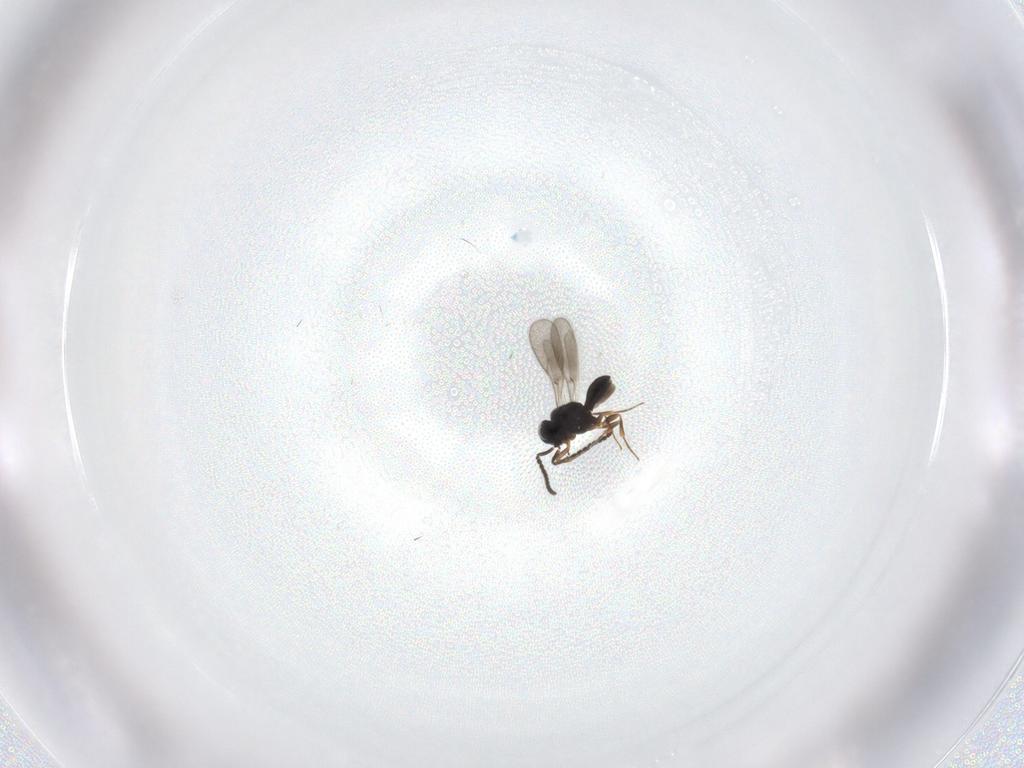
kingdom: Animalia
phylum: Arthropoda
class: Insecta
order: Hymenoptera
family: Scelionidae
